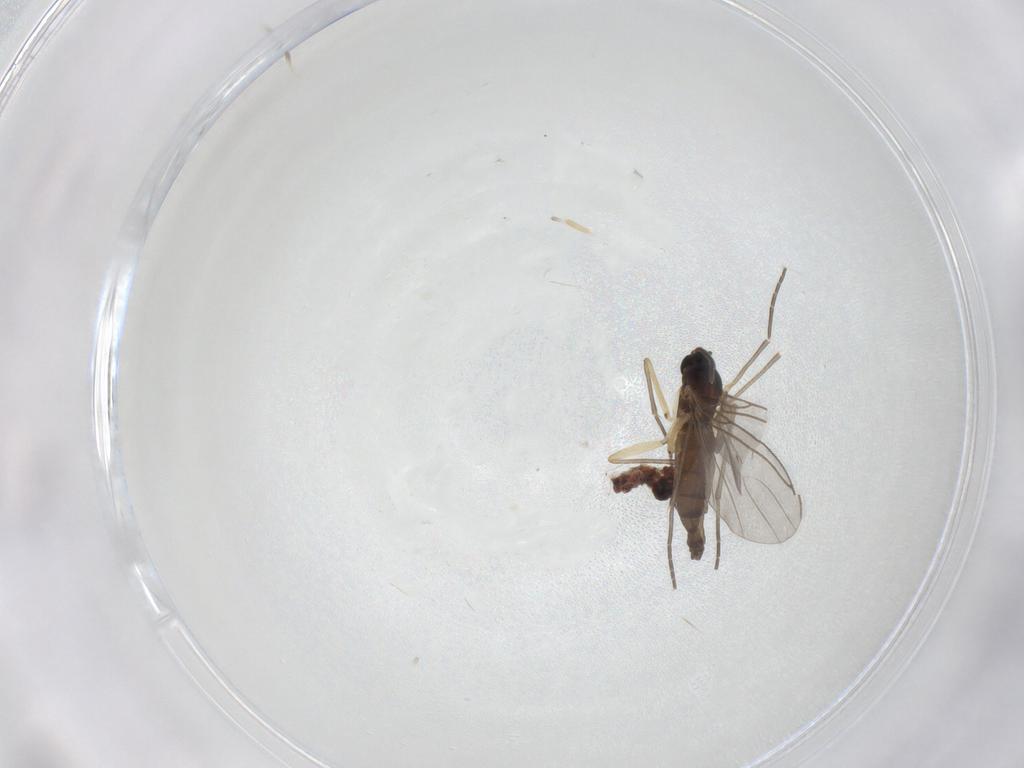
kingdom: Animalia
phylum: Arthropoda
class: Insecta
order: Diptera
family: Sciaridae
